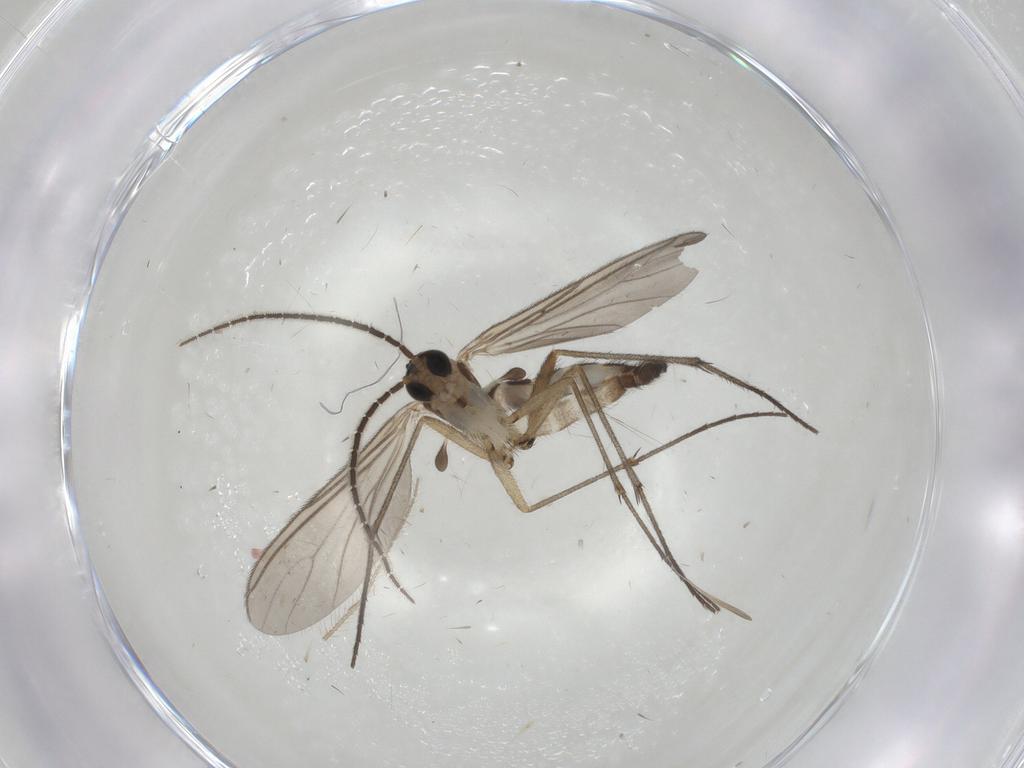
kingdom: Animalia
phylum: Arthropoda
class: Insecta
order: Diptera
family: Sciaridae
